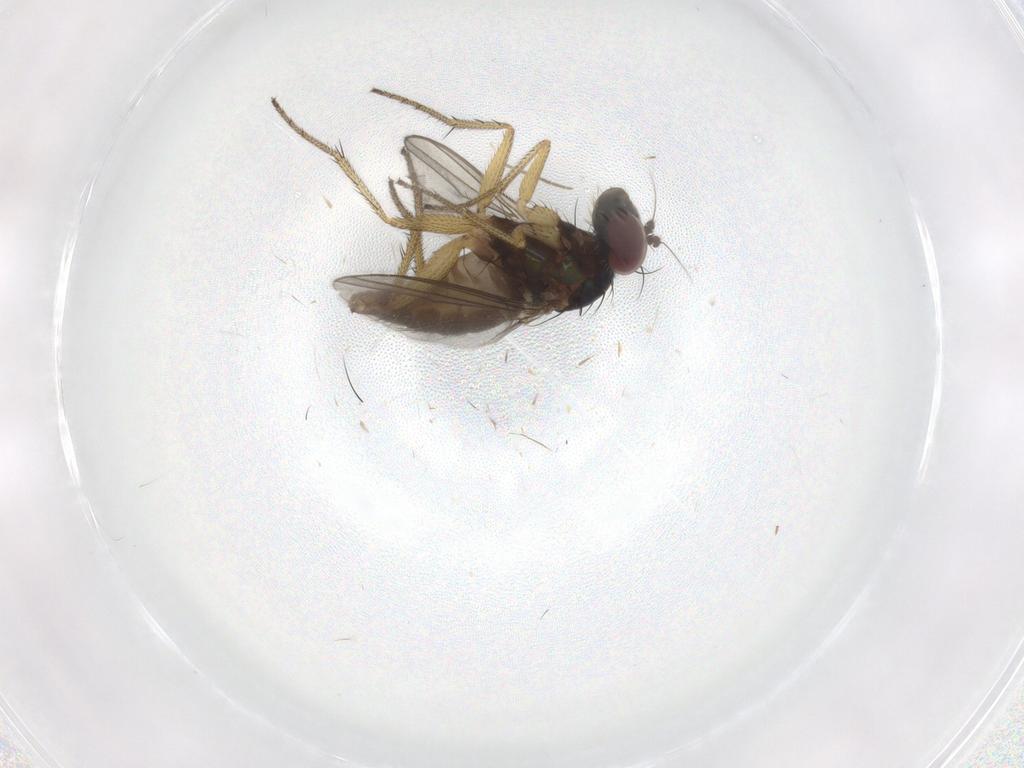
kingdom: Animalia
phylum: Arthropoda
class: Insecta
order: Diptera
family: Dolichopodidae
